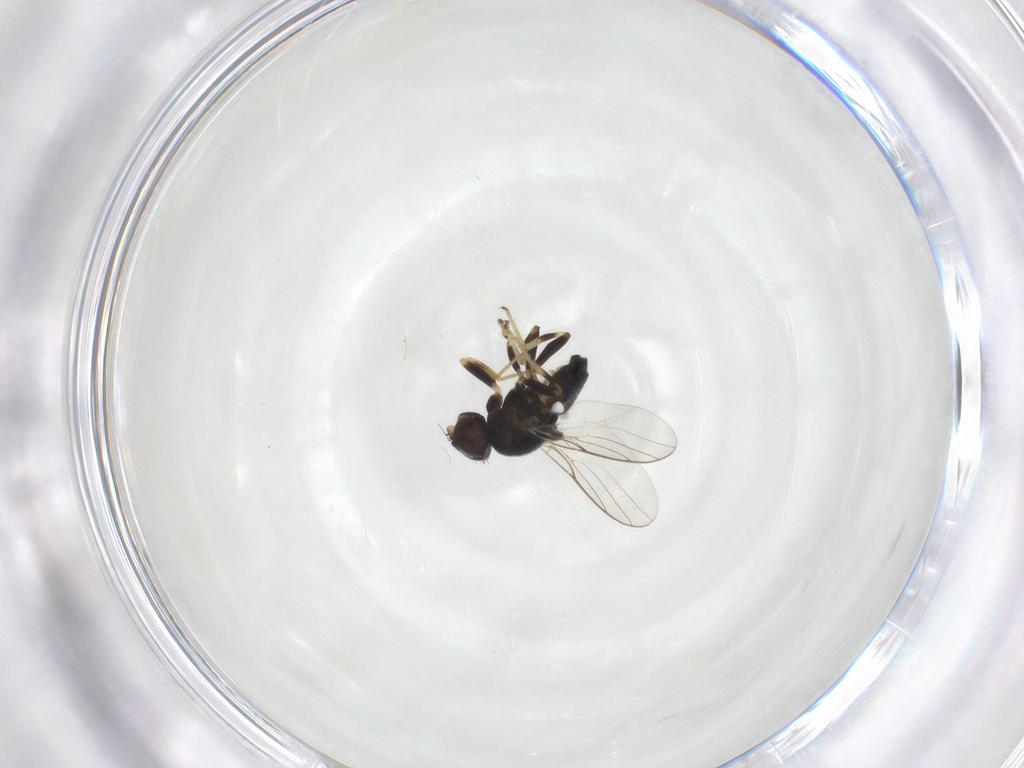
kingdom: Animalia
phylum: Arthropoda
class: Insecta
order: Diptera
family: Chloropidae
